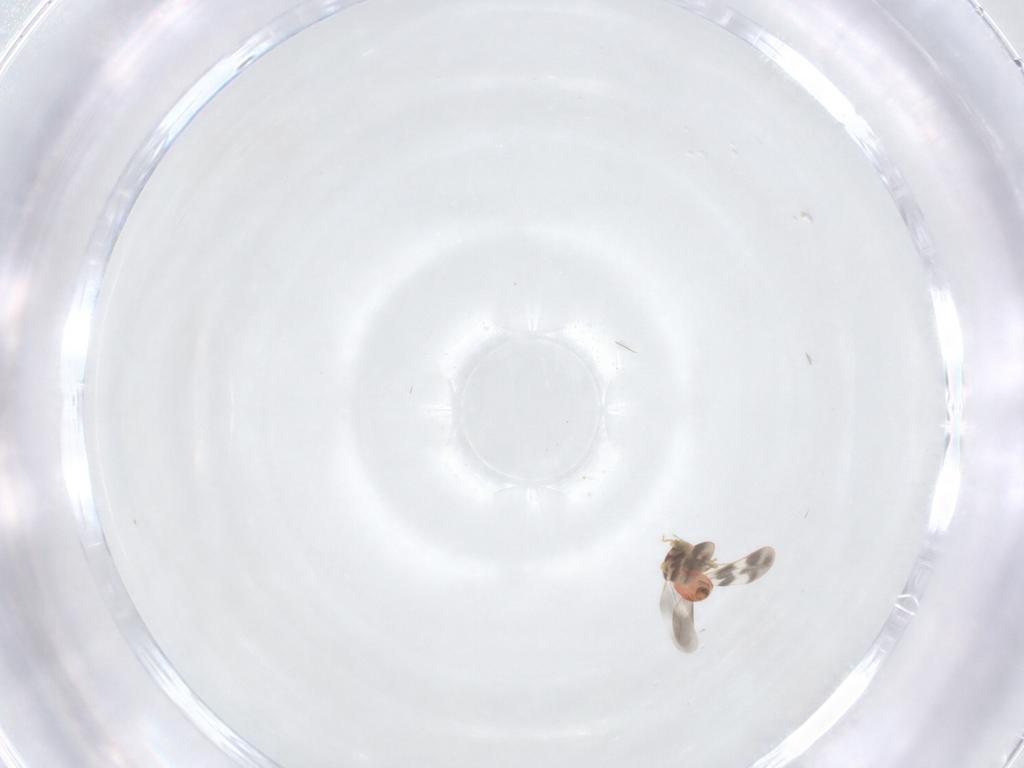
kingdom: Animalia
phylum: Arthropoda
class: Insecta
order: Hemiptera
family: Aleyrodidae
